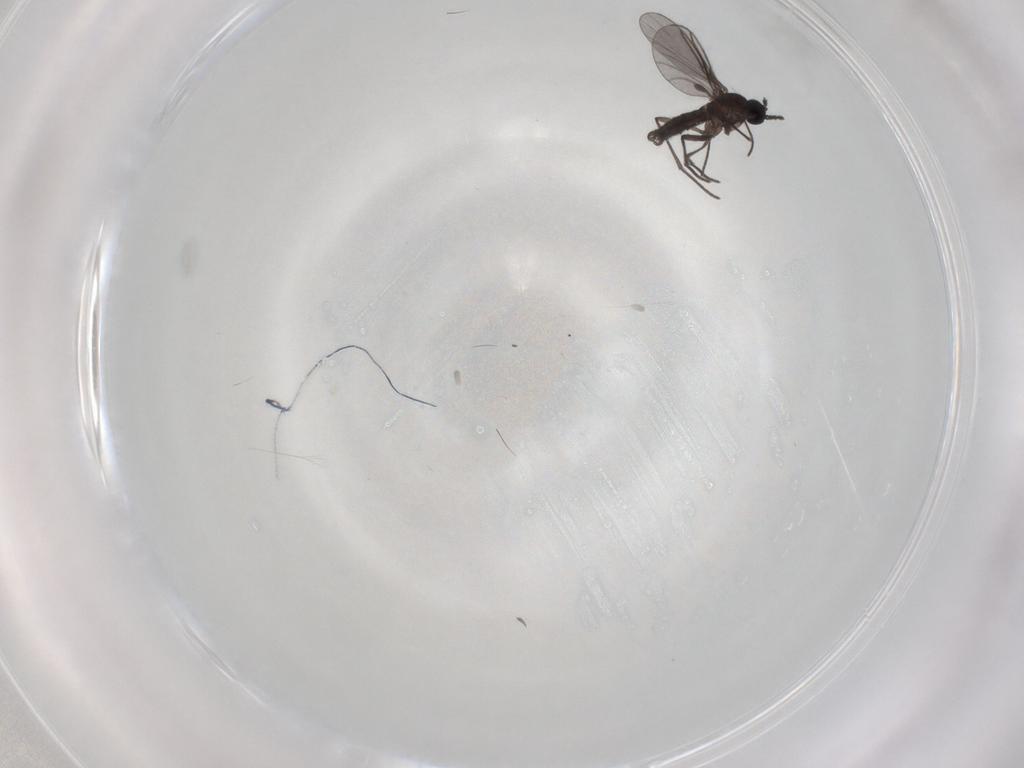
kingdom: Animalia
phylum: Arthropoda
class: Insecta
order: Diptera
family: Limoniidae
